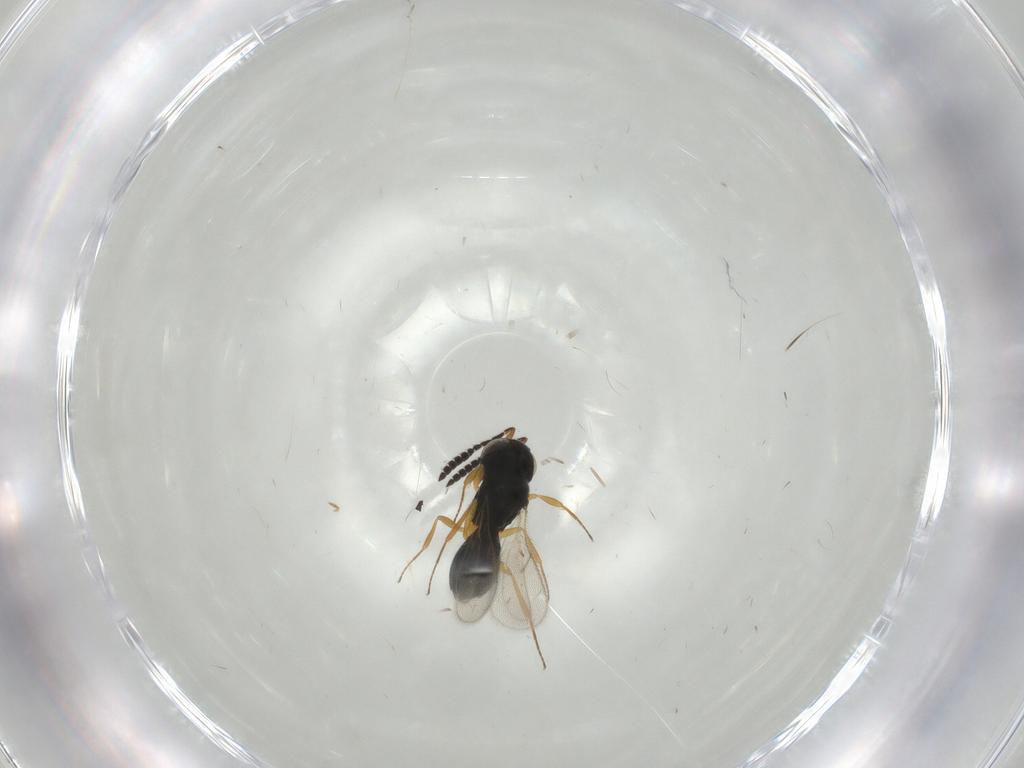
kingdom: Animalia
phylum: Arthropoda
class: Insecta
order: Hymenoptera
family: Scelionidae
